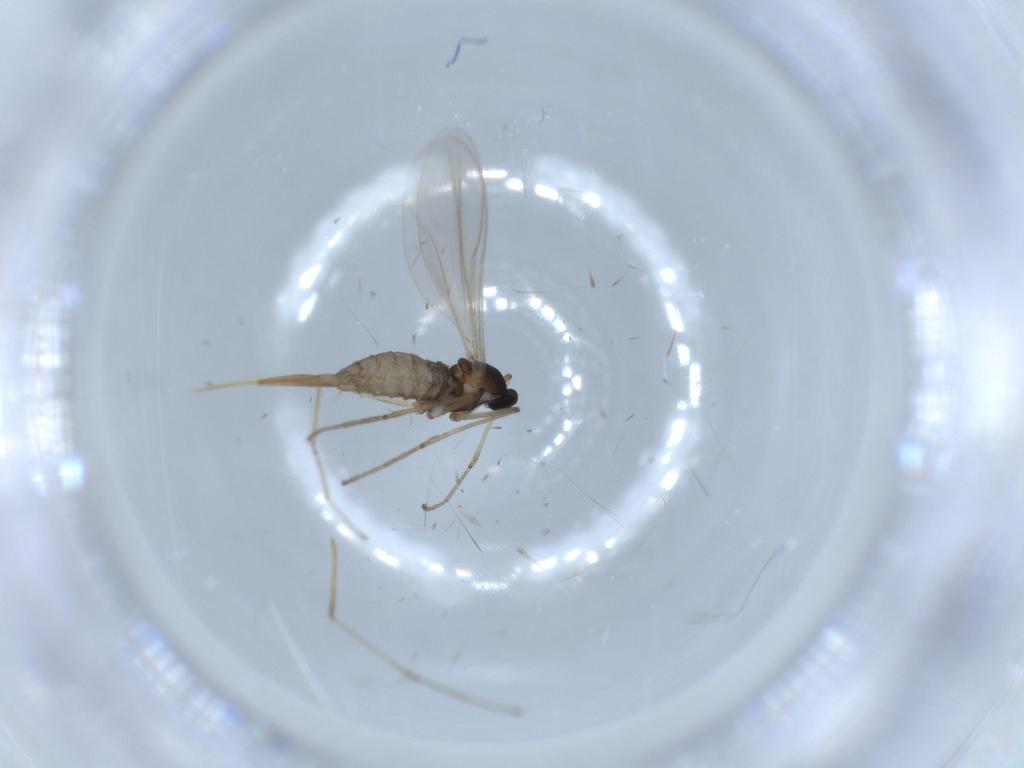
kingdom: Animalia
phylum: Arthropoda
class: Insecta
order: Diptera
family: Cecidomyiidae
